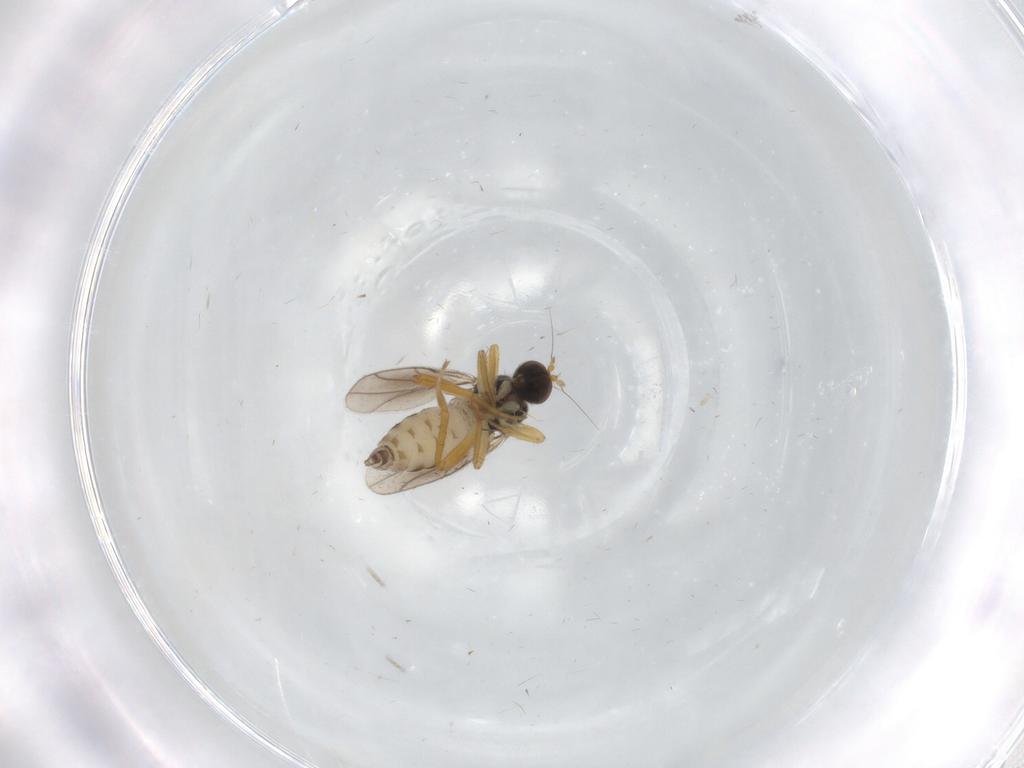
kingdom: Animalia
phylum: Arthropoda
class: Insecta
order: Diptera
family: Hybotidae
